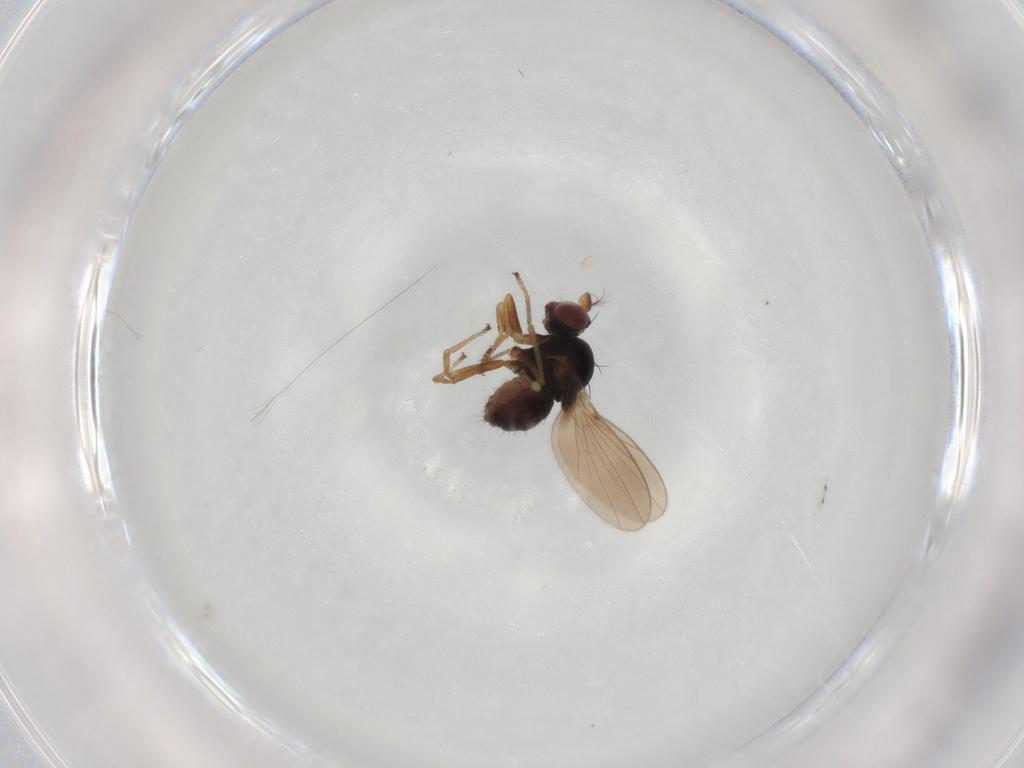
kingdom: Animalia
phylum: Arthropoda
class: Insecta
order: Diptera
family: Ephydridae
